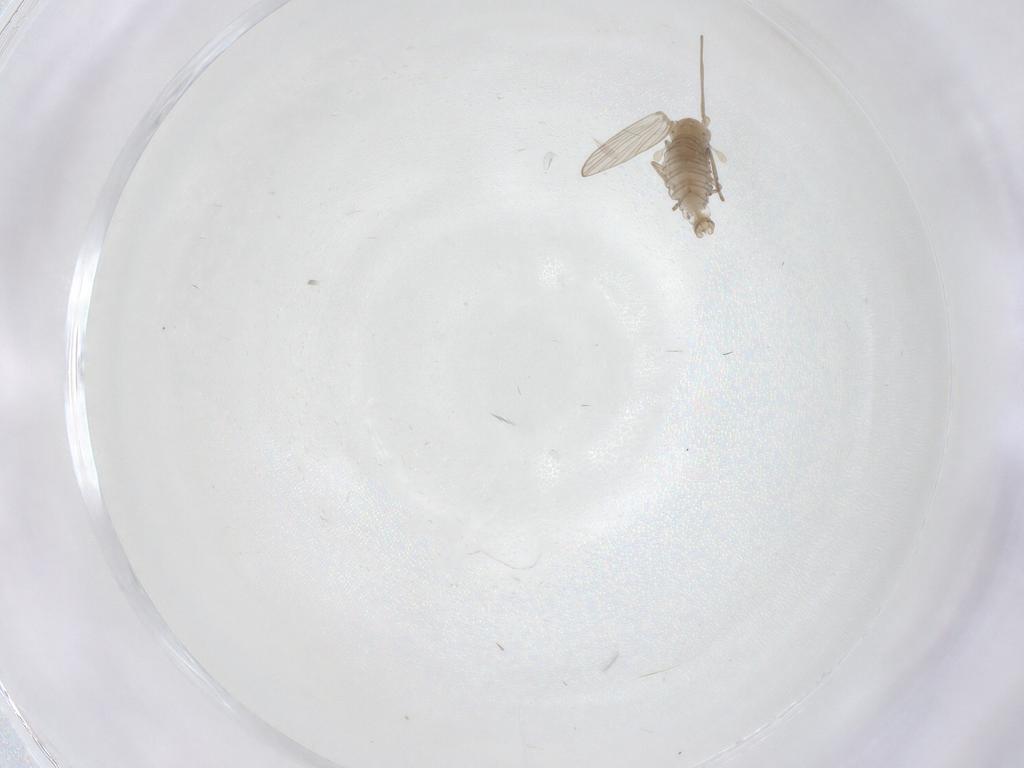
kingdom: Animalia
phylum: Arthropoda
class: Insecta
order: Diptera
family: Psychodidae
